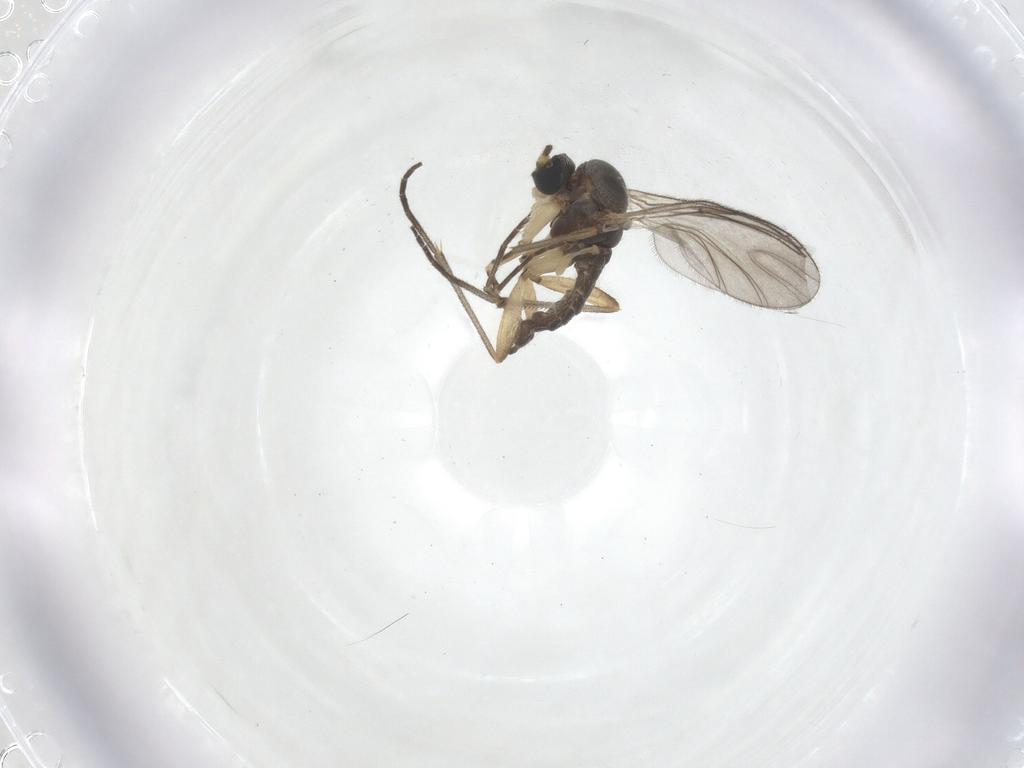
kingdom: Animalia
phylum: Arthropoda
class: Insecta
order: Diptera
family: Sciaridae
